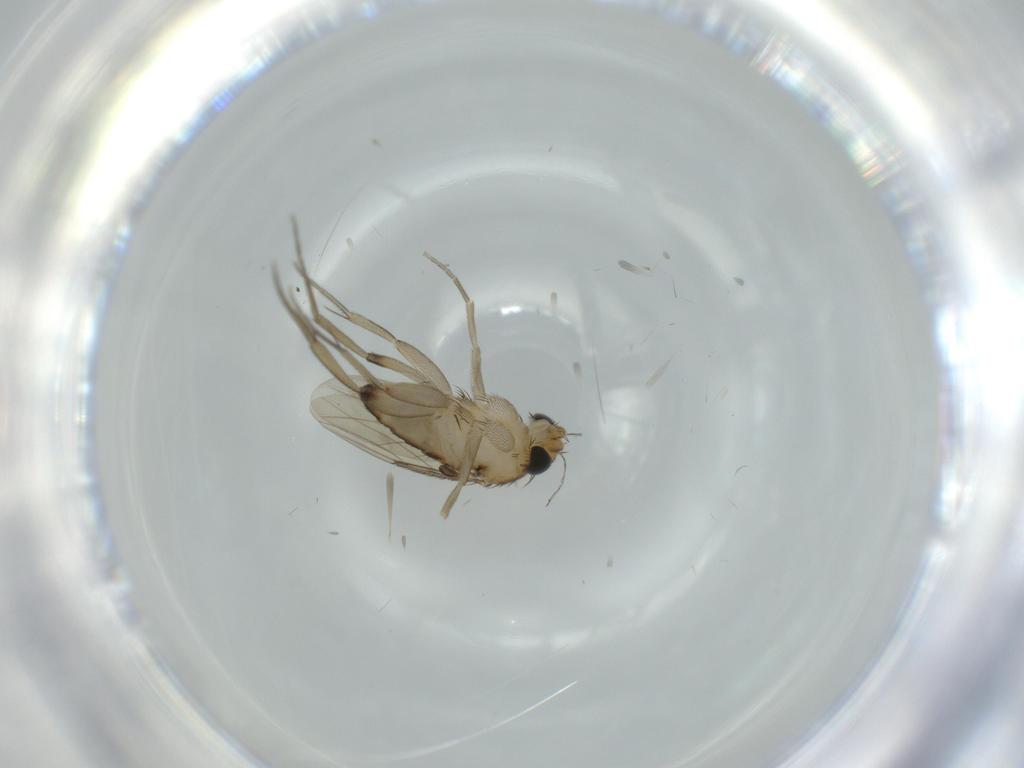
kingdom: Animalia
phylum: Arthropoda
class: Insecta
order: Diptera
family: Phoridae
